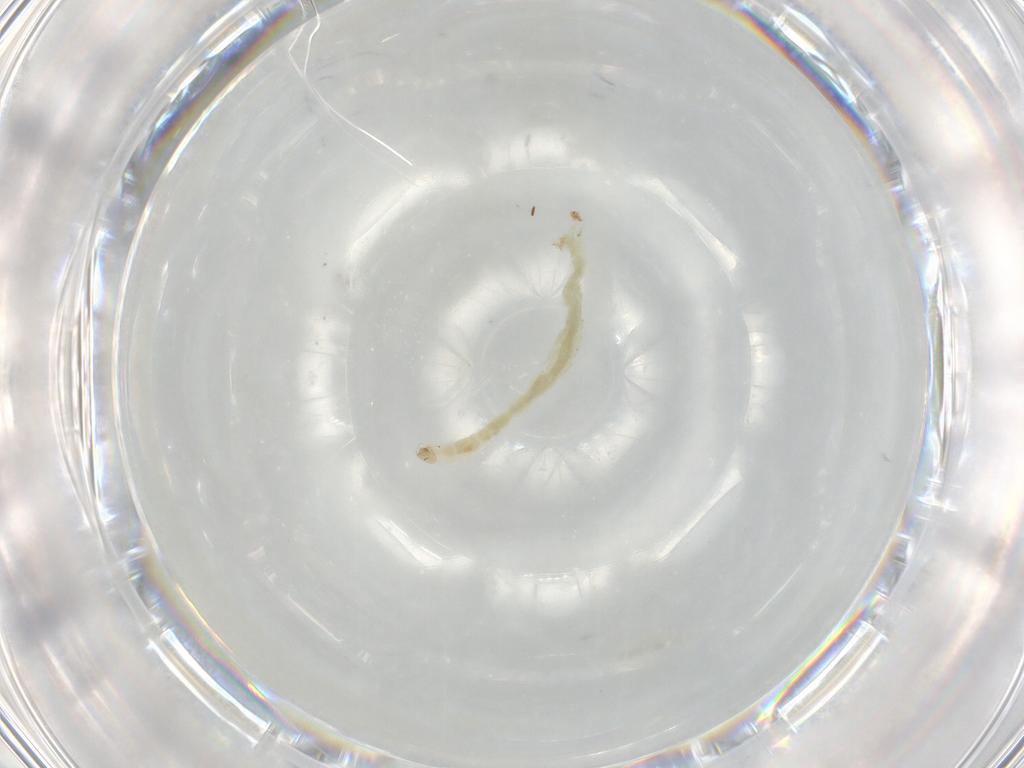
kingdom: Animalia
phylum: Arthropoda
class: Insecta
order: Diptera
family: Chironomidae
